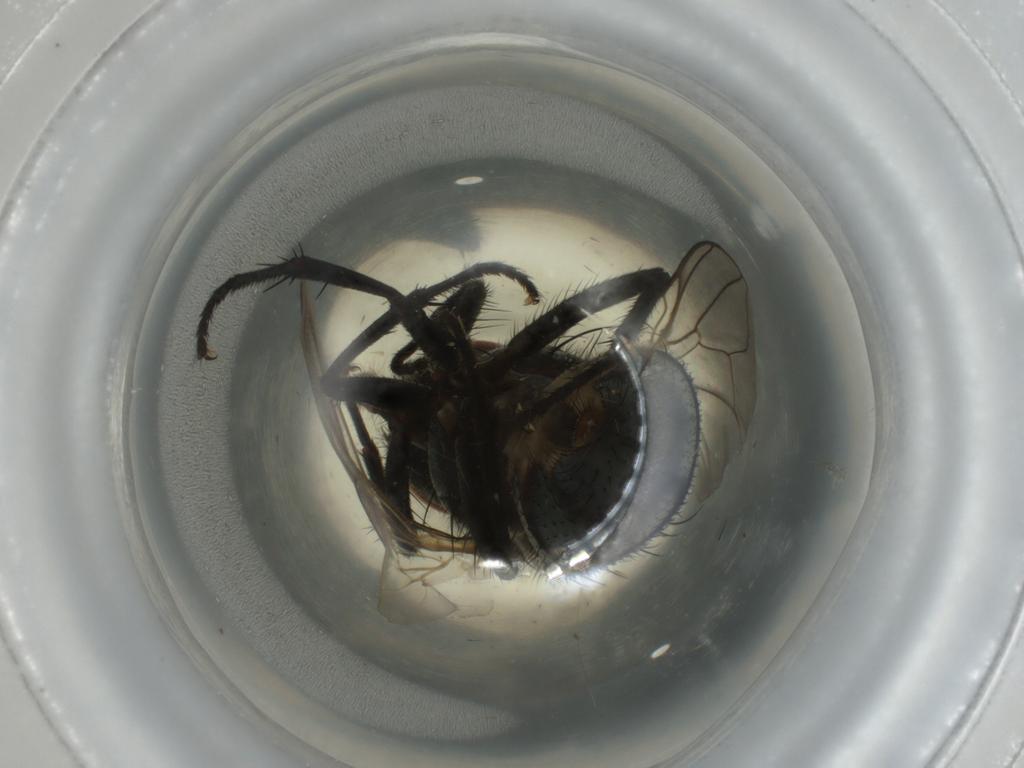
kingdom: Animalia
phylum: Arthropoda
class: Insecta
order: Diptera
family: Muscidae
